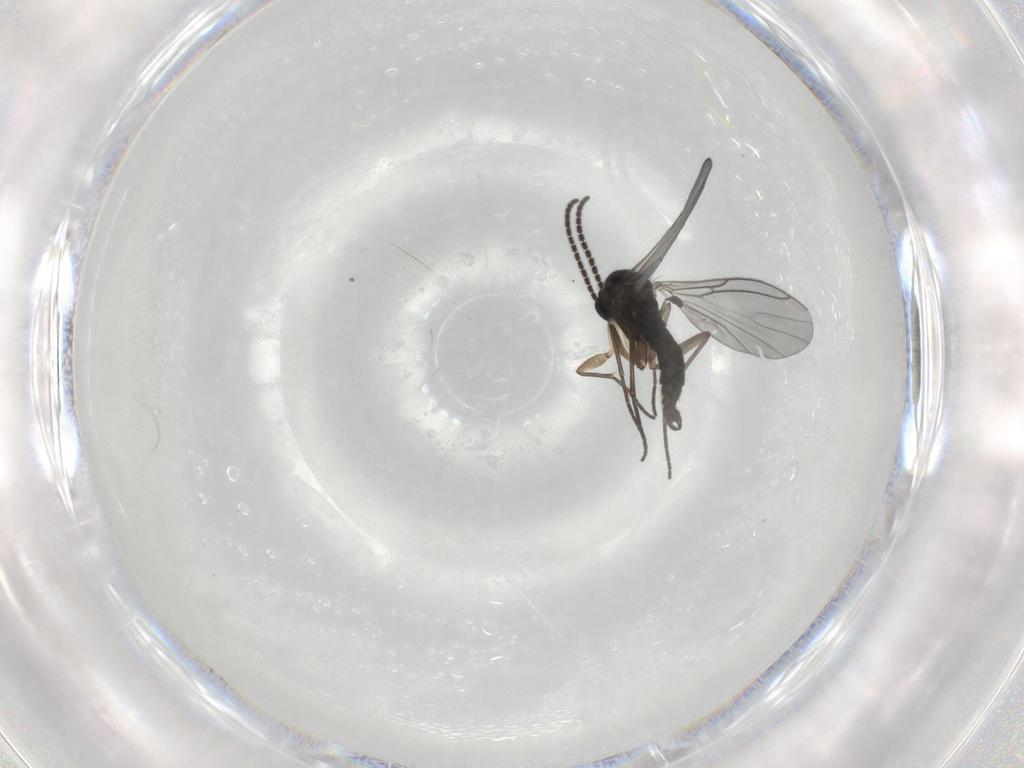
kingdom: Animalia
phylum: Arthropoda
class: Insecta
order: Diptera
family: Sciaridae
